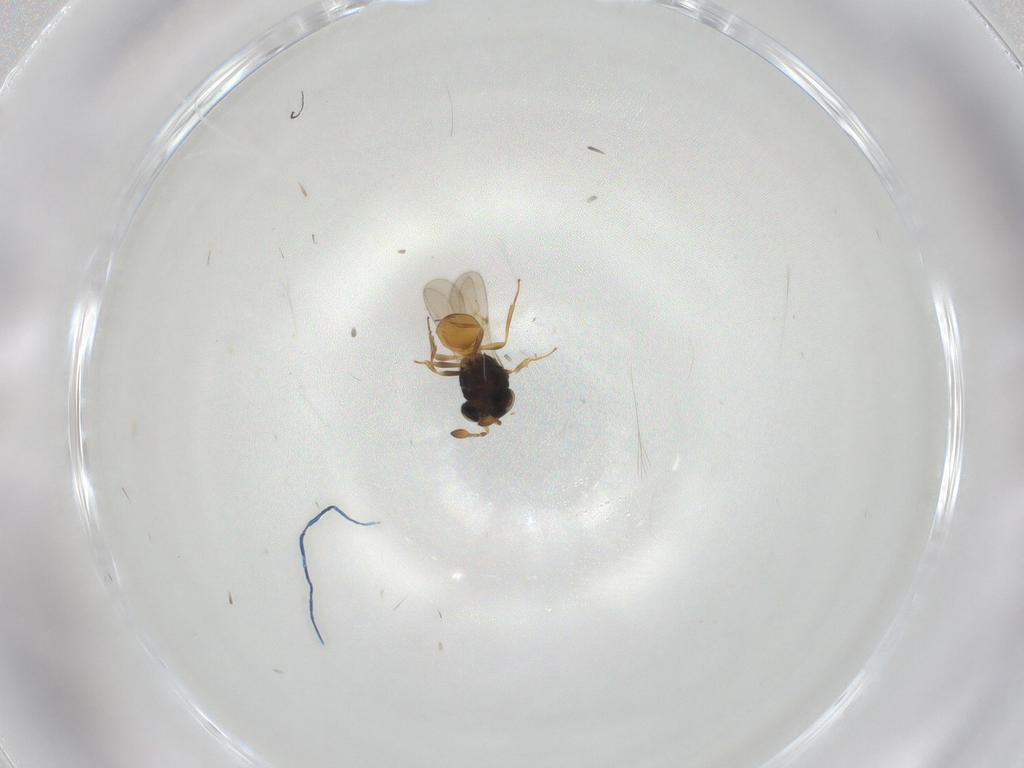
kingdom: Animalia
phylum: Arthropoda
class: Insecta
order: Hymenoptera
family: Scelionidae
